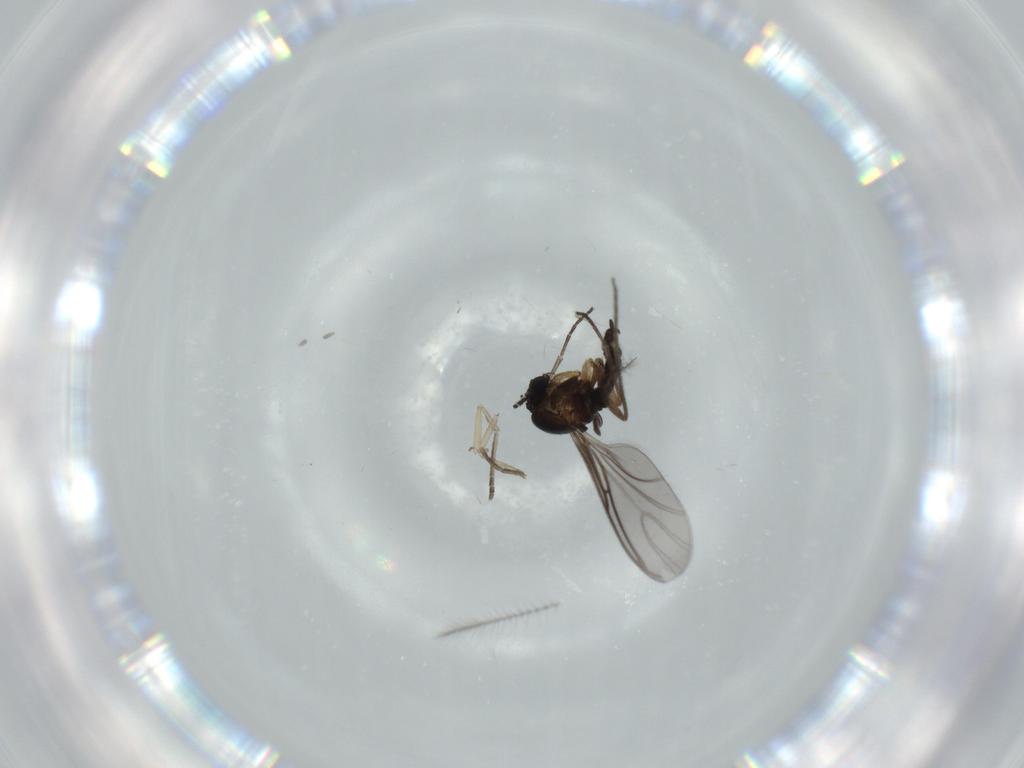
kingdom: Animalia
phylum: Arthropoda
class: Insecta
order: Diptera
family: Sciaridae
